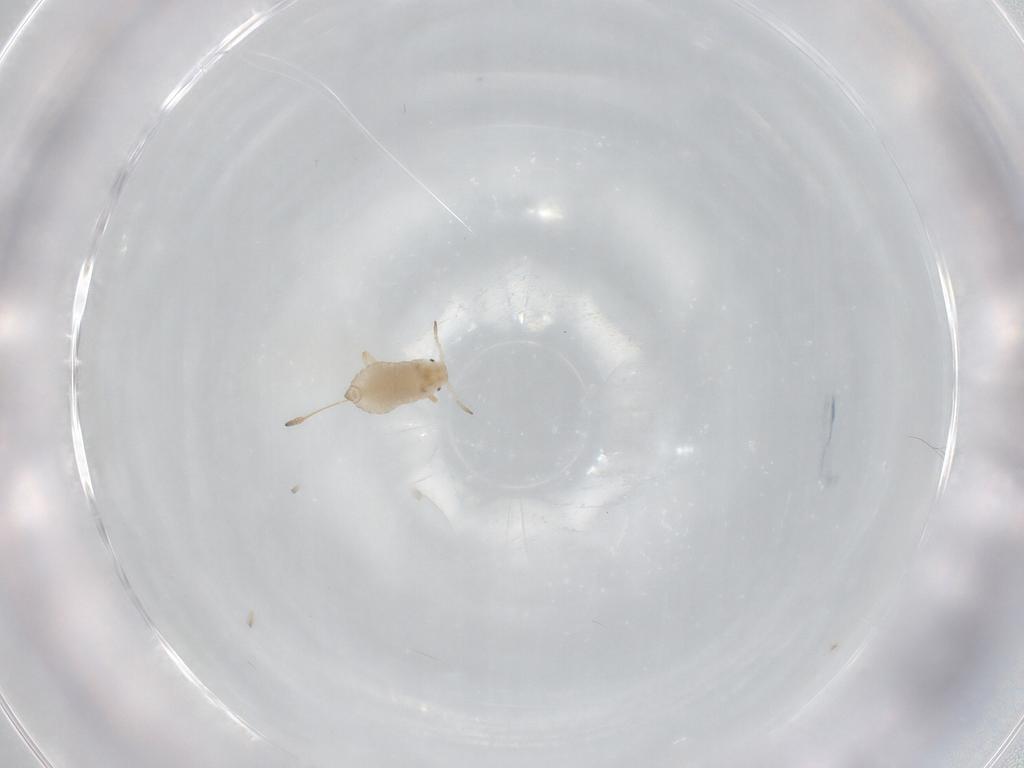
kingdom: Animalia
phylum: Arthropoda
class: Insecta
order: Hemiptera
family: Aphididae
